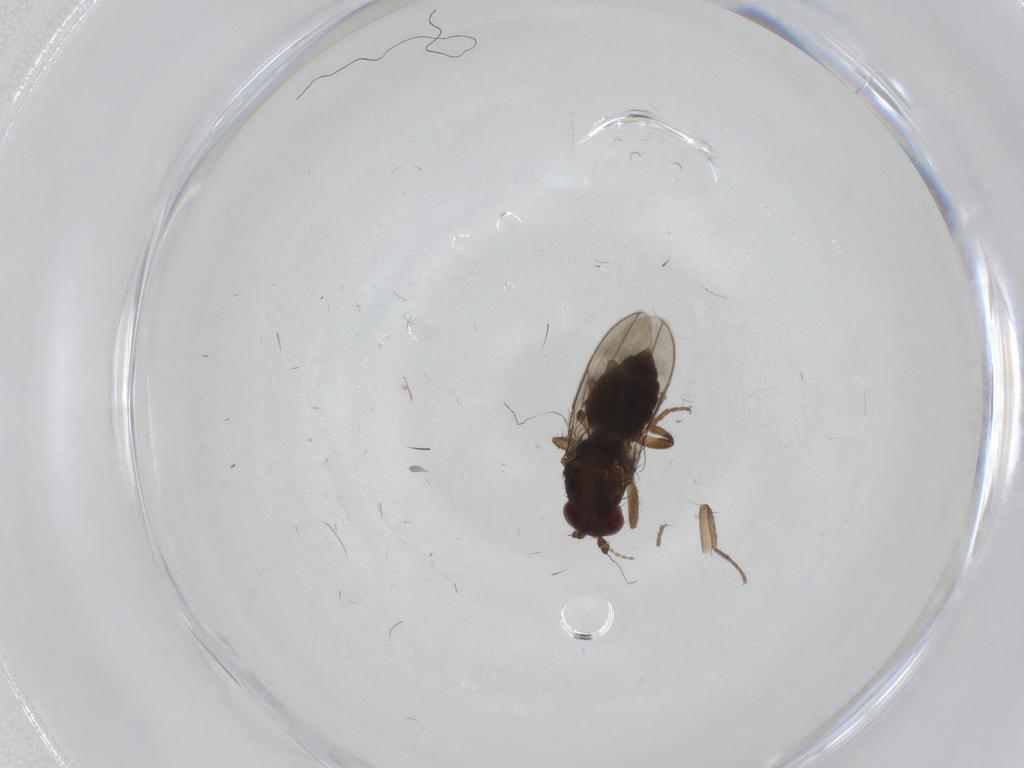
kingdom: Animalia
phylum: Arthropoda
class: Insecta
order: Diptera
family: Sphaeroceridae
